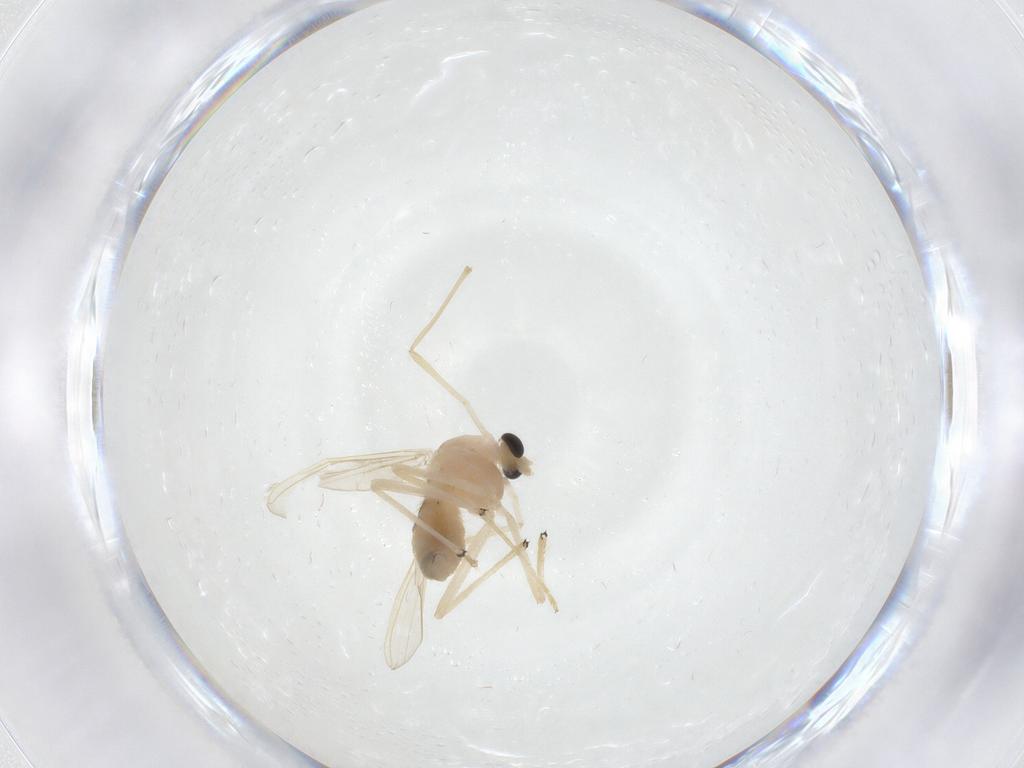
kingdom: Animalia
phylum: Arthropoda
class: Insecta
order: Diptera
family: Chironomidae
